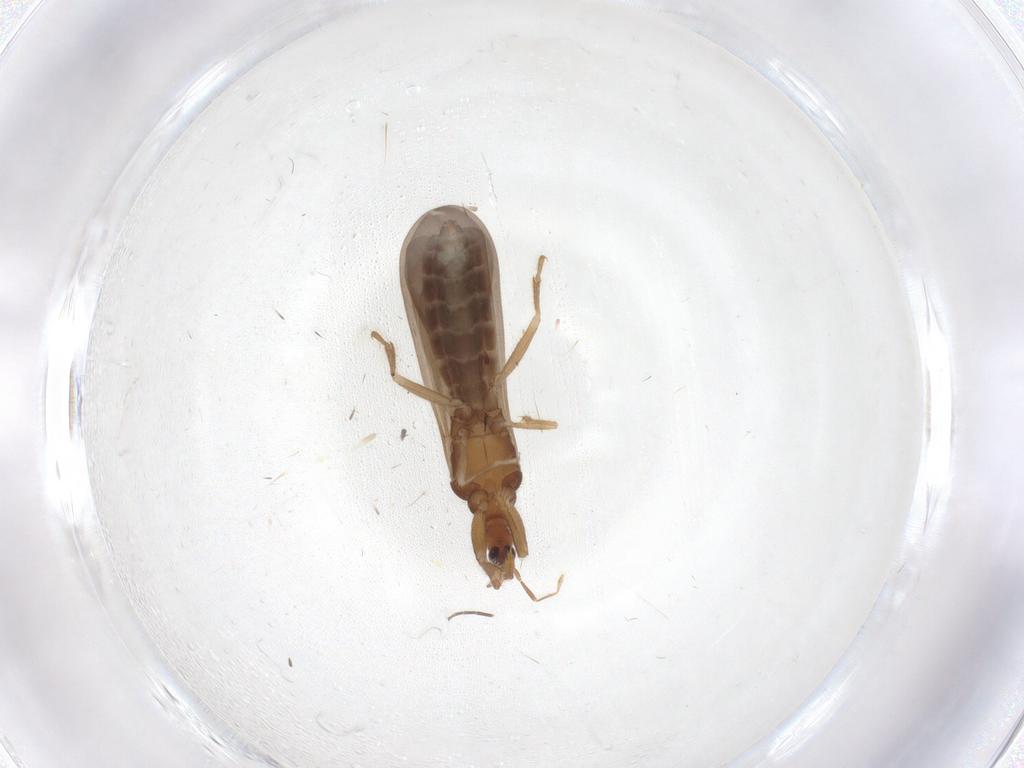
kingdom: Animalia
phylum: Arthropoda
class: Insecta
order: Hemiptera
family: Enicocephalidae
